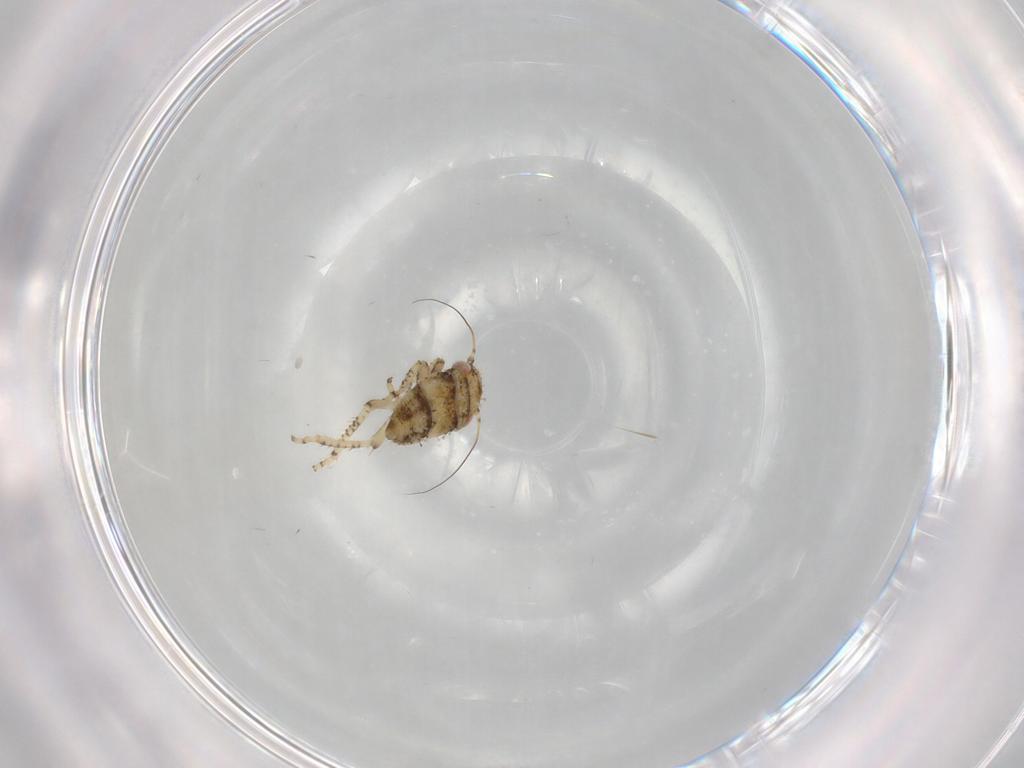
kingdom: Animalia
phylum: Arthropoda
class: Insecta
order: Hemiptera
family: Cicadellidae
